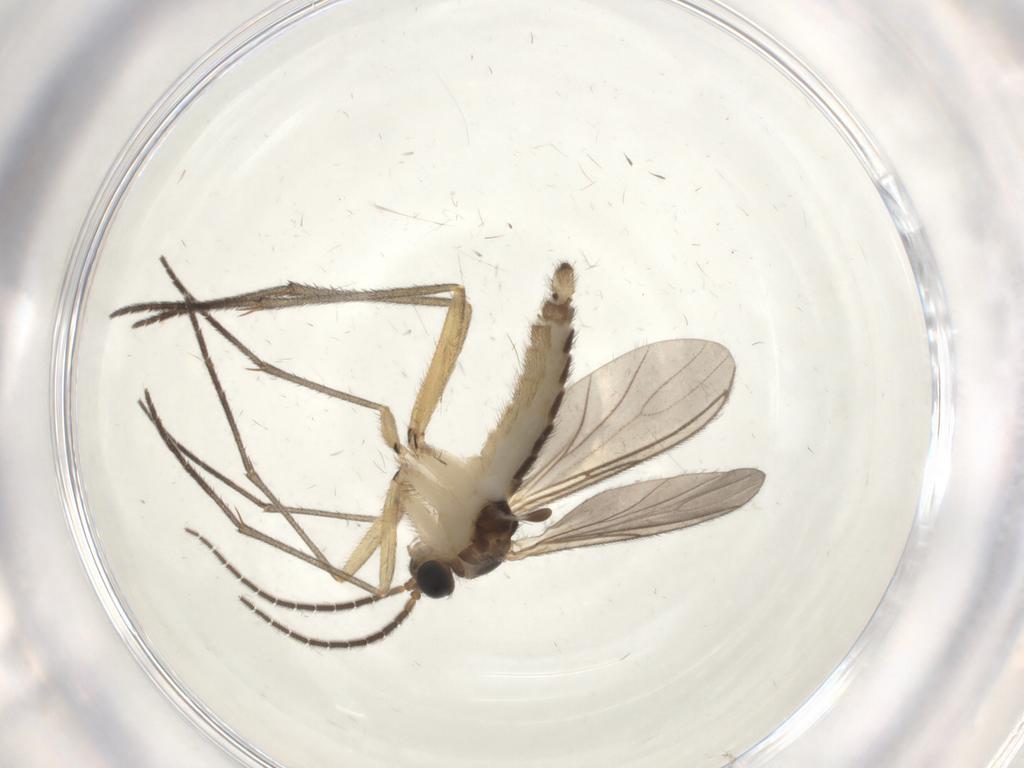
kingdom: Animalia
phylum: Arthropoda
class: Insecta
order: Diptera
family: Sciaridae
